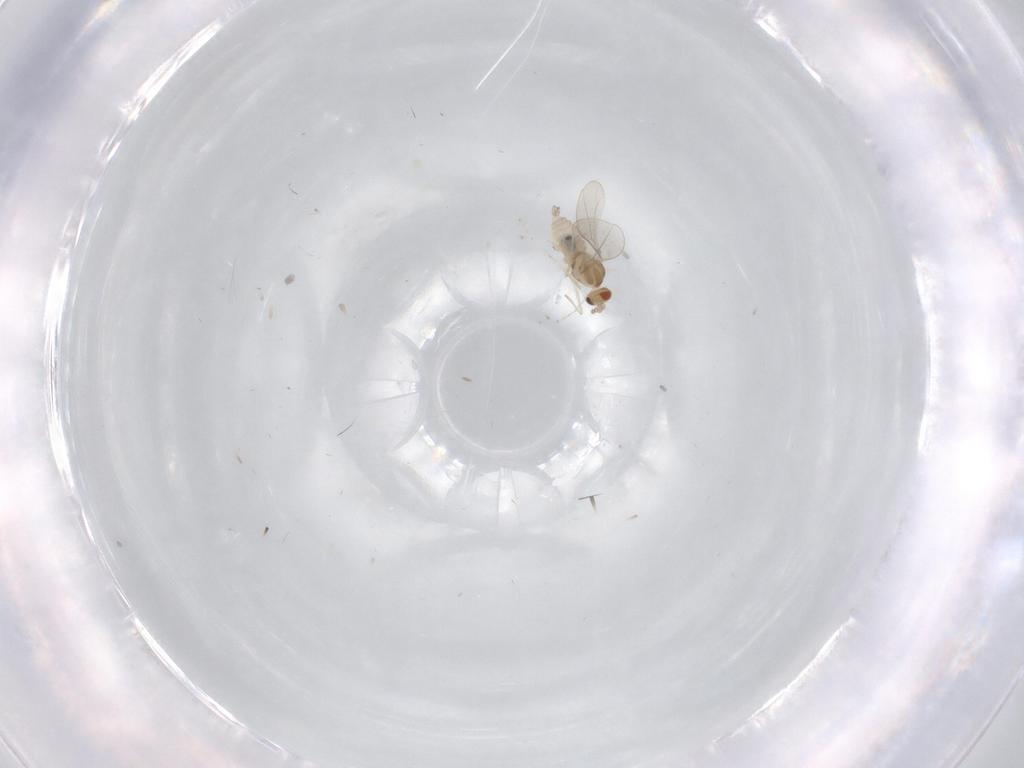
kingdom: Animalia
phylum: Arthropoda
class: Insecta
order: Diptera
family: Cecidomyiidae
